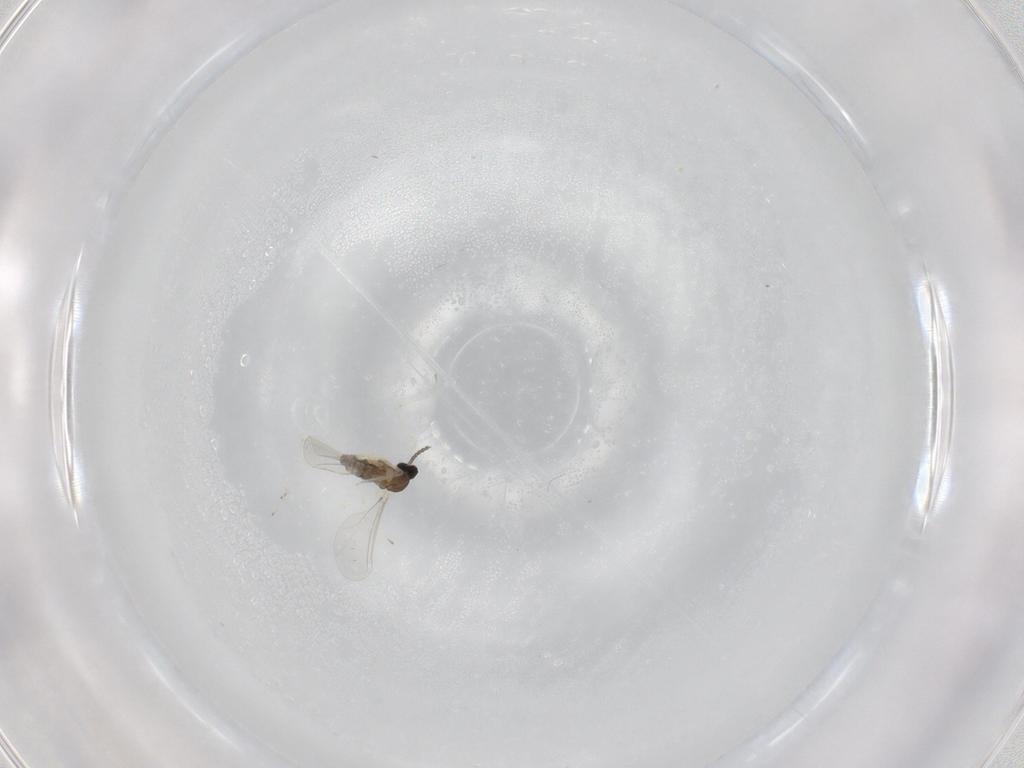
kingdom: Animalia
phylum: Arthropoda
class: Insecta
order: Diptera
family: Cecidomyiidae
